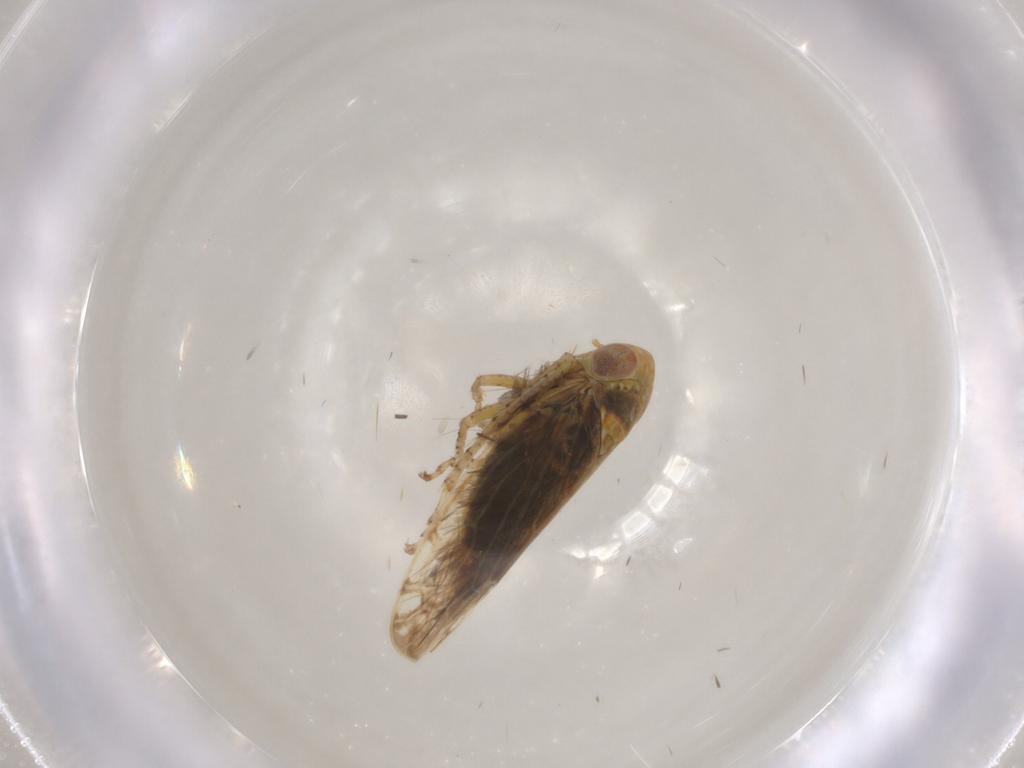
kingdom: Animalia
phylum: Arthropoda
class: Insecta
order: Hemiptera
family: Cicadellidae
